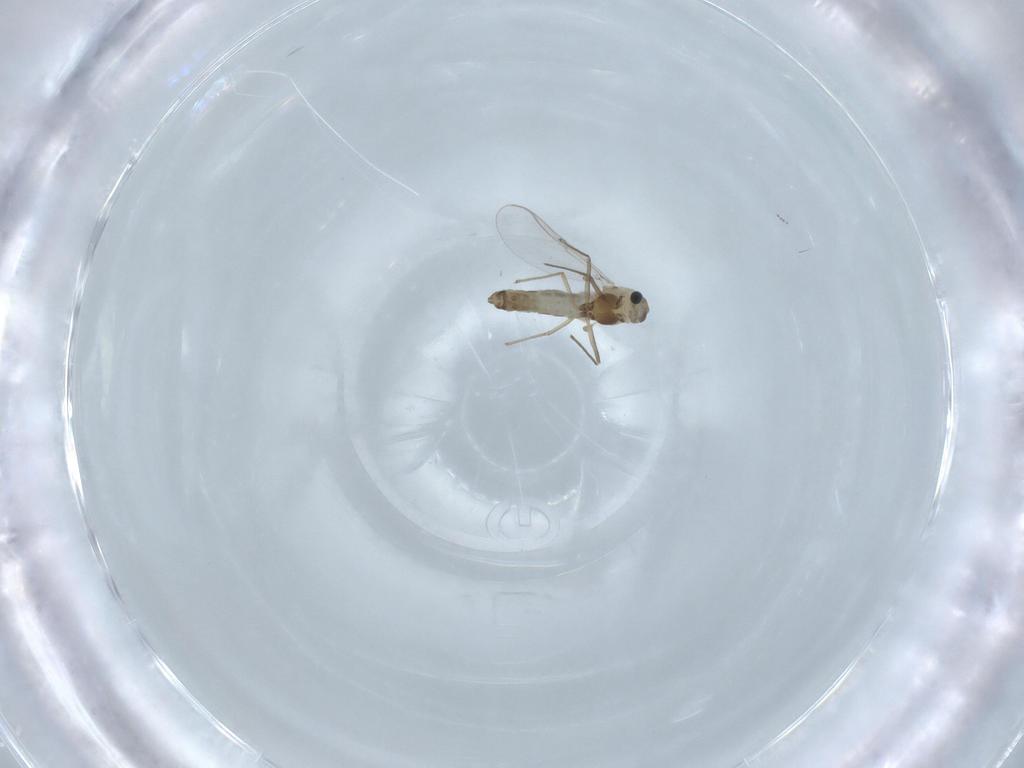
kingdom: Animalia
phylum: Arthropoda
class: Insecta
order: Diptera
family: Chironomidae
